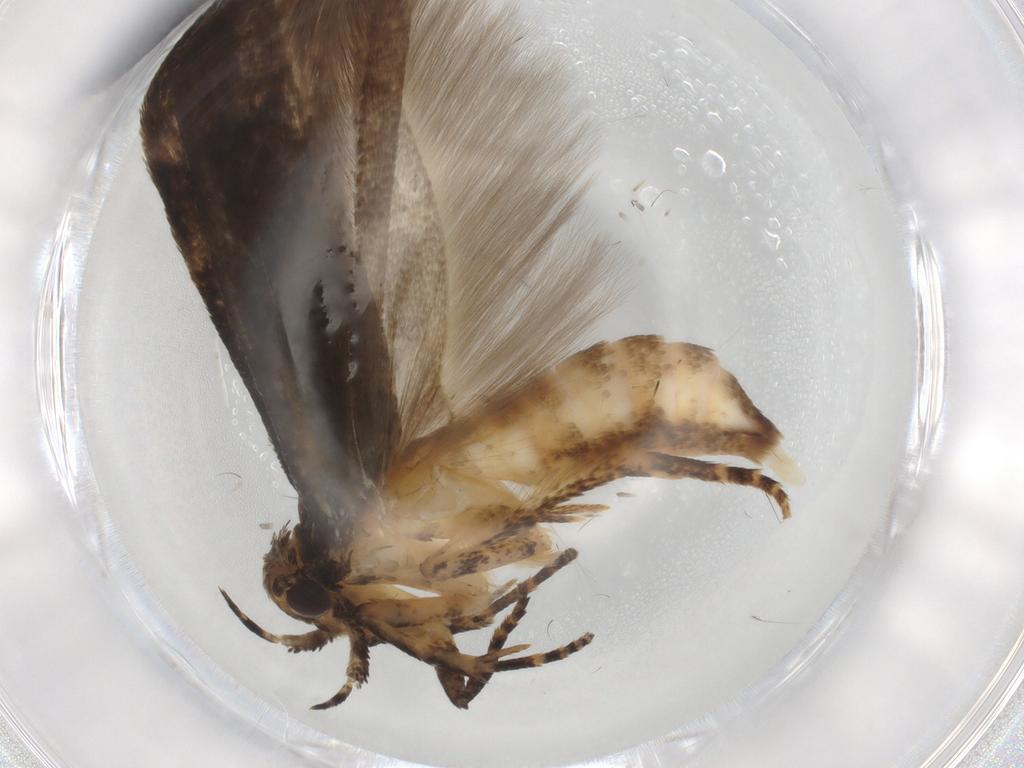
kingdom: Animalia
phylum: Arthropoda
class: Insecta
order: Lepidoptera
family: Gelechiidae
